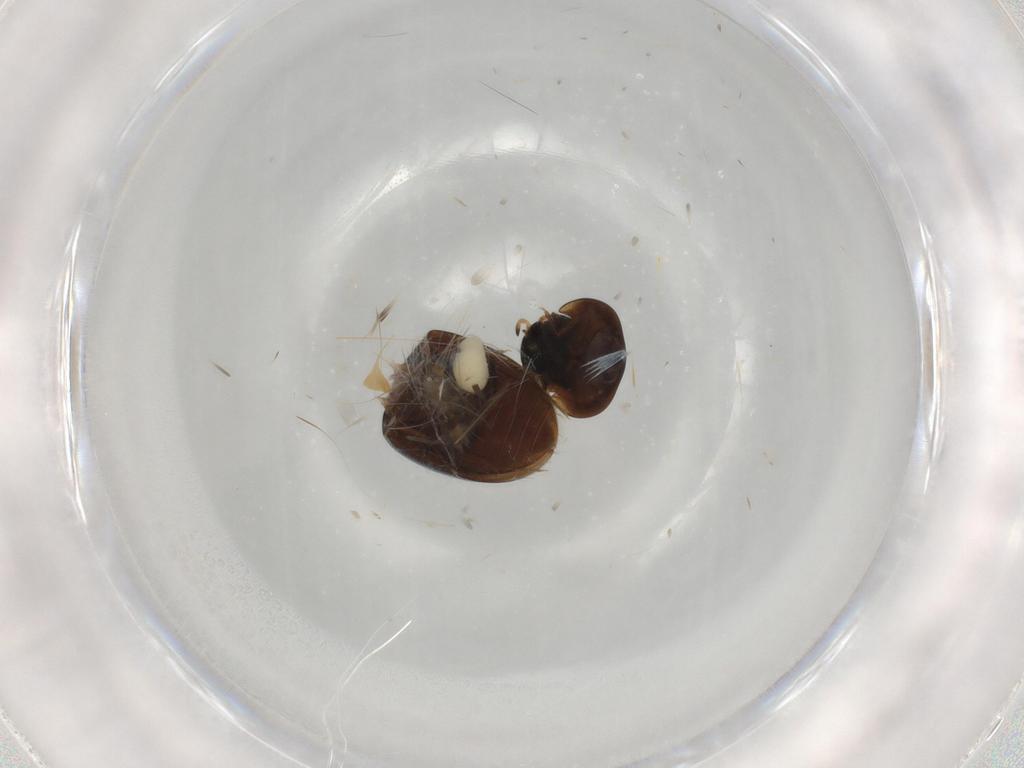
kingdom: Animalia
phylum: Arthropoda
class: Insecta
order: Coleoptera
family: Hydrophilidae
